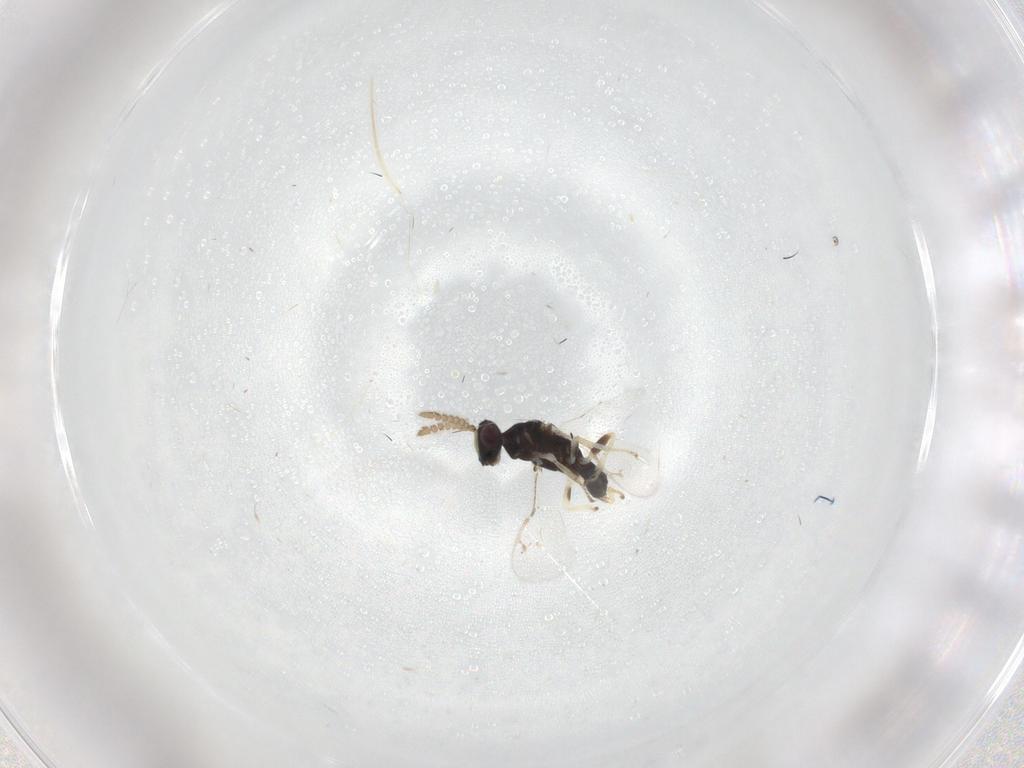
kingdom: Animalia
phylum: Arthropoda
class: Insecta
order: Hymenoptera
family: Pirenidae
